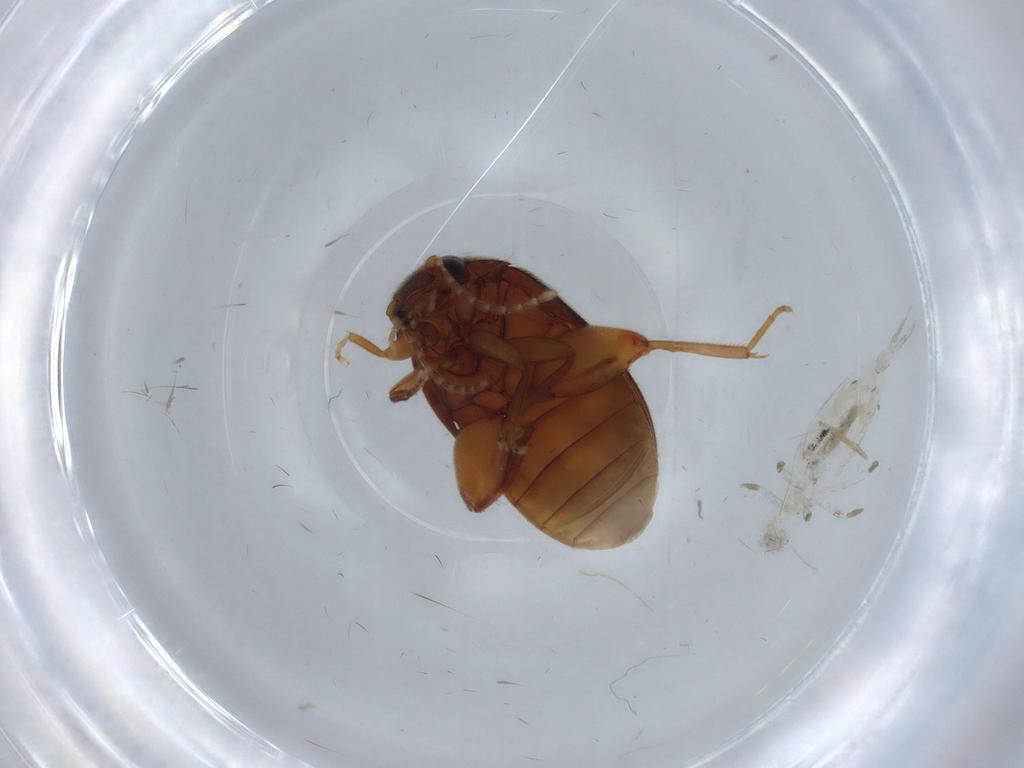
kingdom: Animalia
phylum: Arthropoda
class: Insecta
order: Coleoptera
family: Scirtidae
